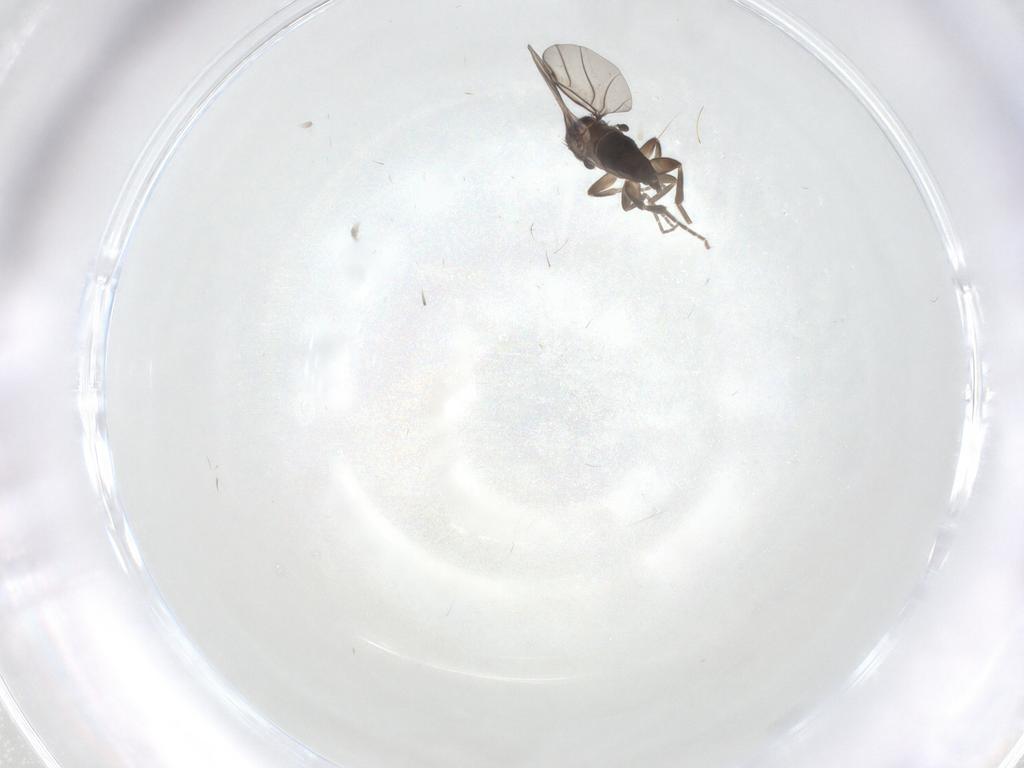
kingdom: Animalia
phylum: Arthropoda
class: Insecta
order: Diptera
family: Phoridae
